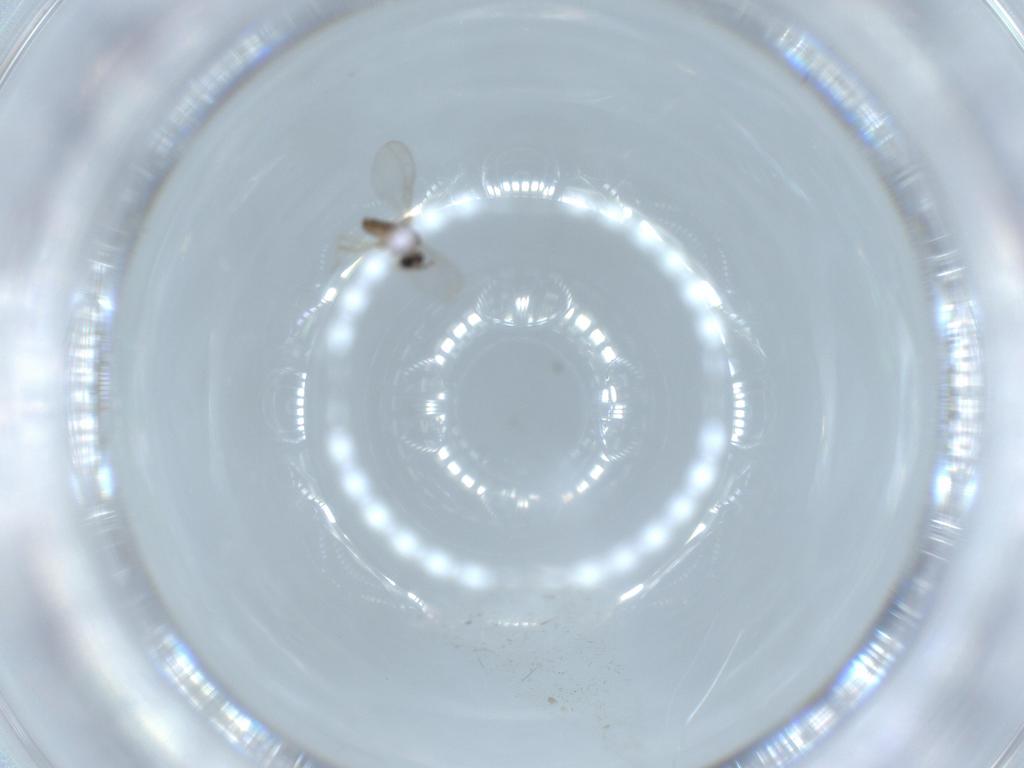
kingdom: Animalia
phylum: Arthropoda
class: Insecta
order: Diptera
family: Cecidomyiidae
